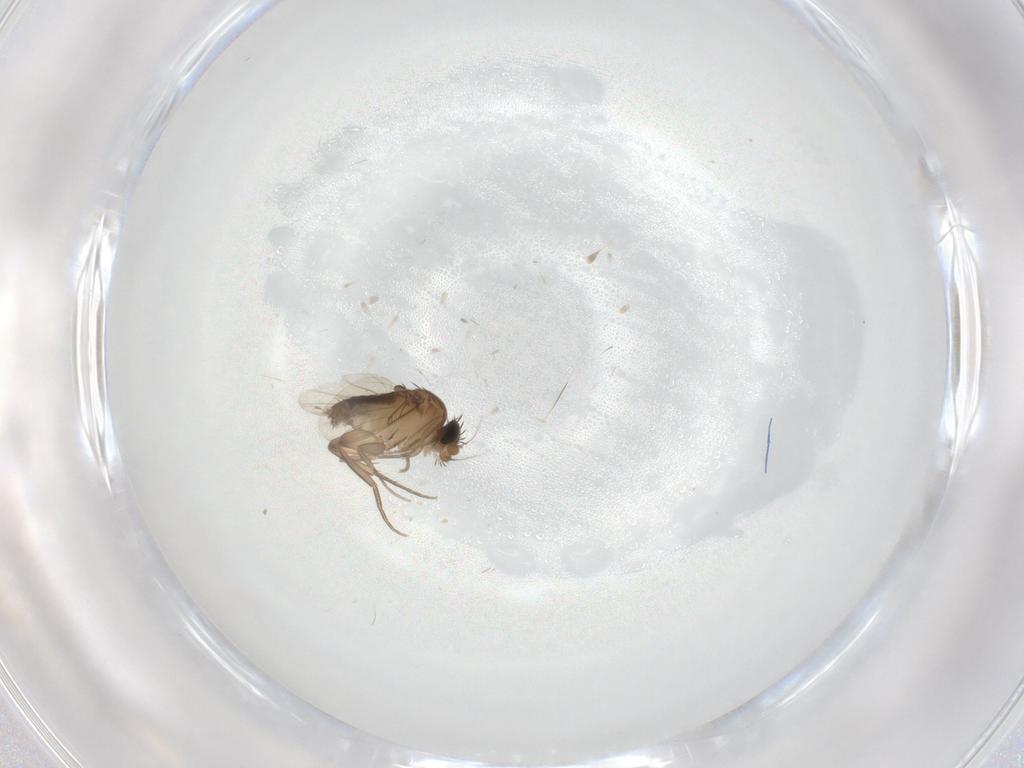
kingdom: Animalia
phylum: Arthropoda
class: Insecta
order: Diptera
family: Phoridae
